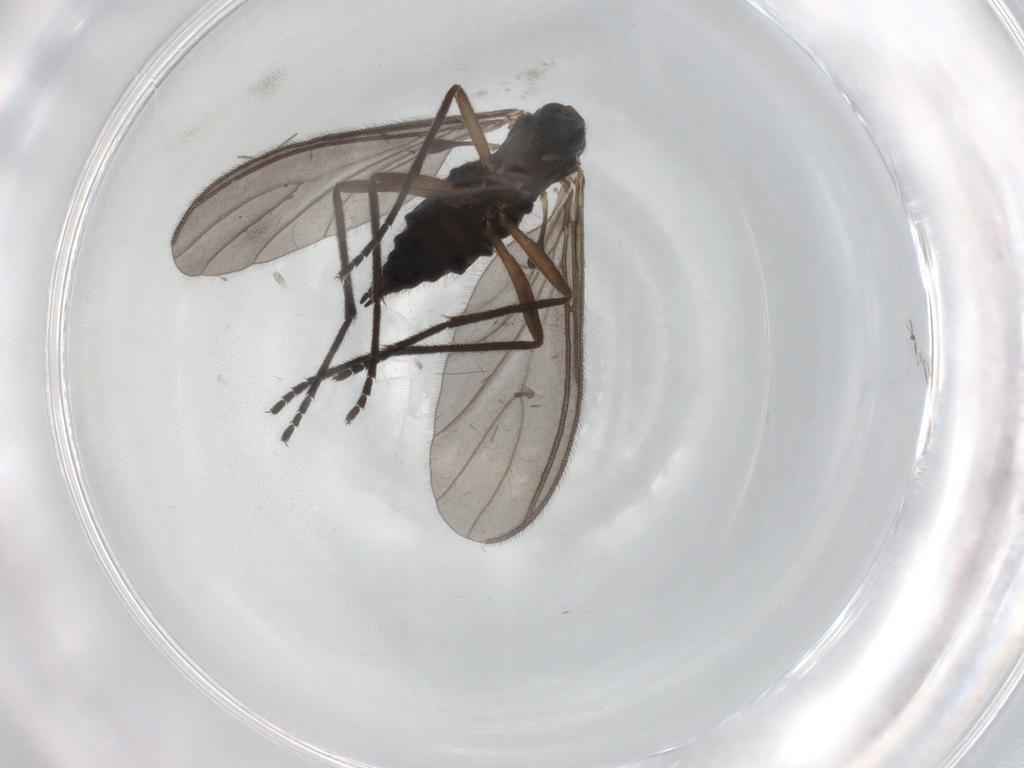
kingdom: Animalia
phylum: Arthropoda
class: Insecta
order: Diptera
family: Sciaridae
